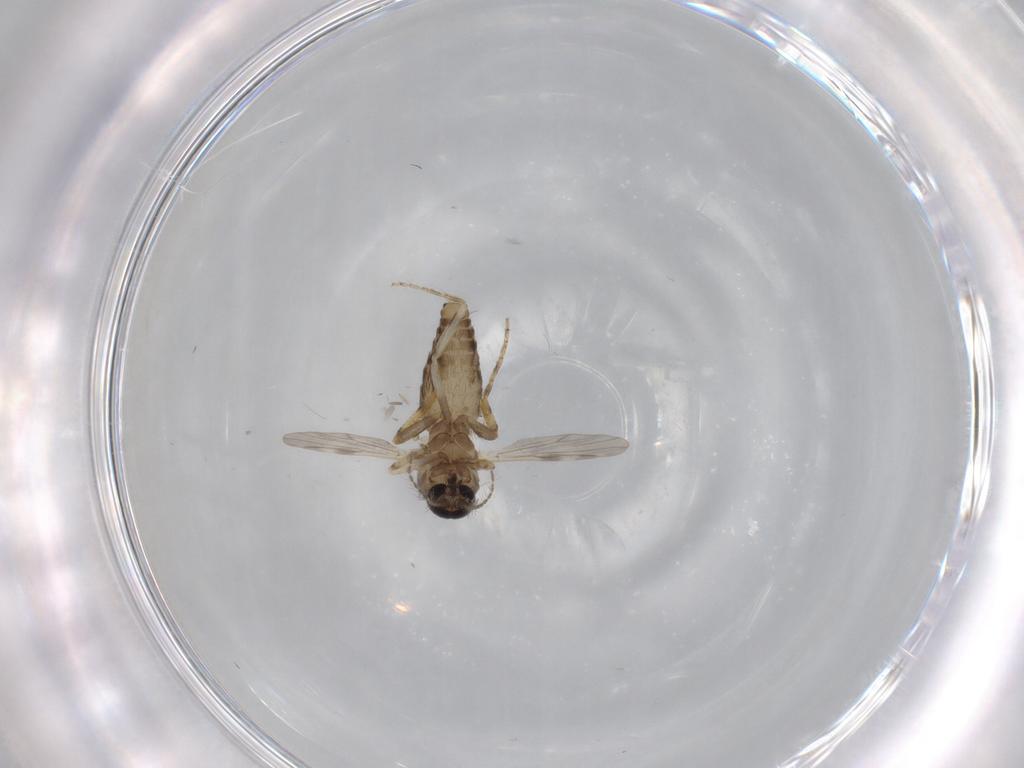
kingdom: Animalia
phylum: Arthropoda
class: Insecta
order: Diptera
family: Ceratopogonidae
